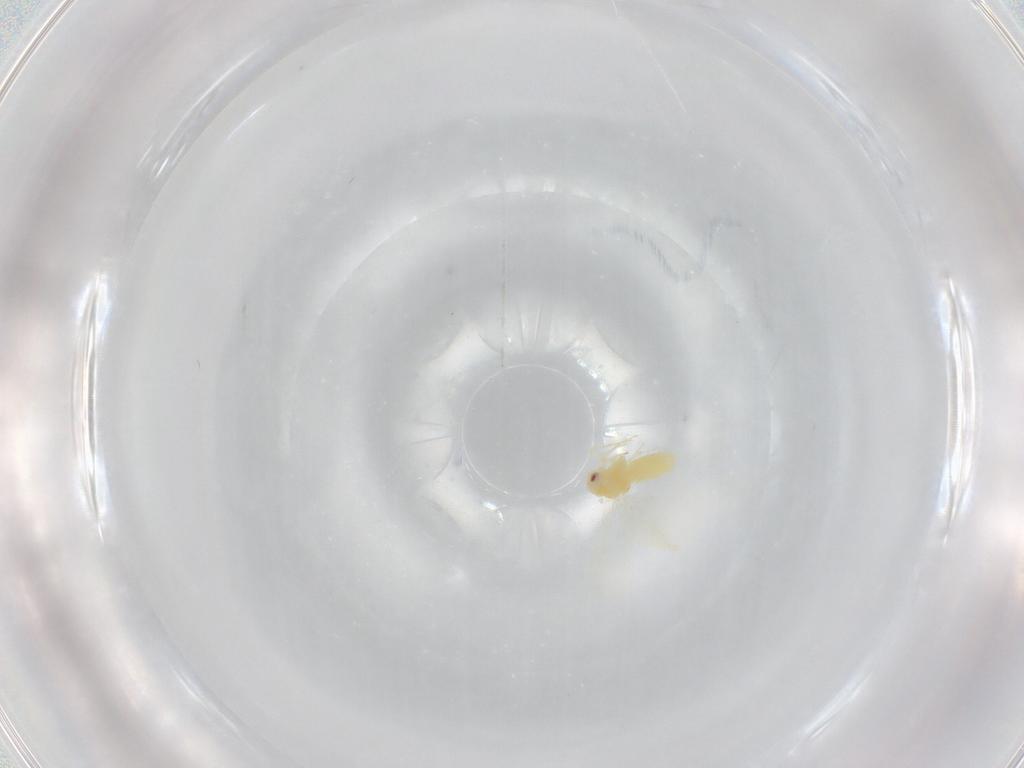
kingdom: Animalia
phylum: Arthropoda
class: Insecta
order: Hemiptera
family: Aleyrodidae
